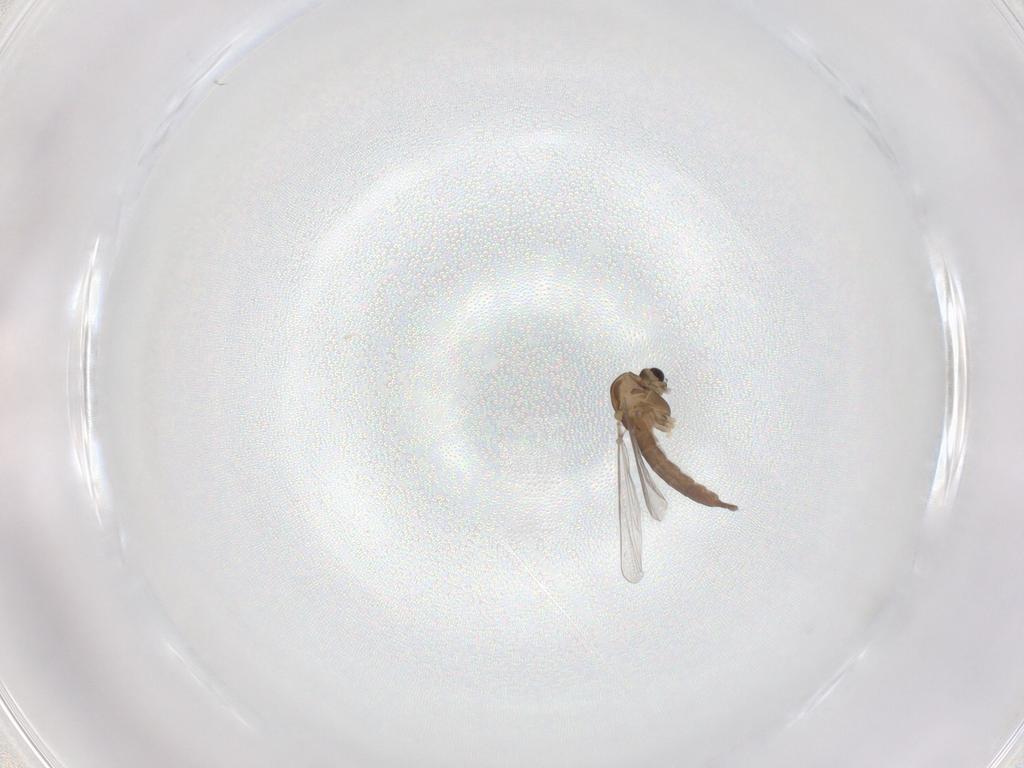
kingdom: Animalia
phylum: Arthropoda
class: Insecta
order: Diptera
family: Chironomidae
